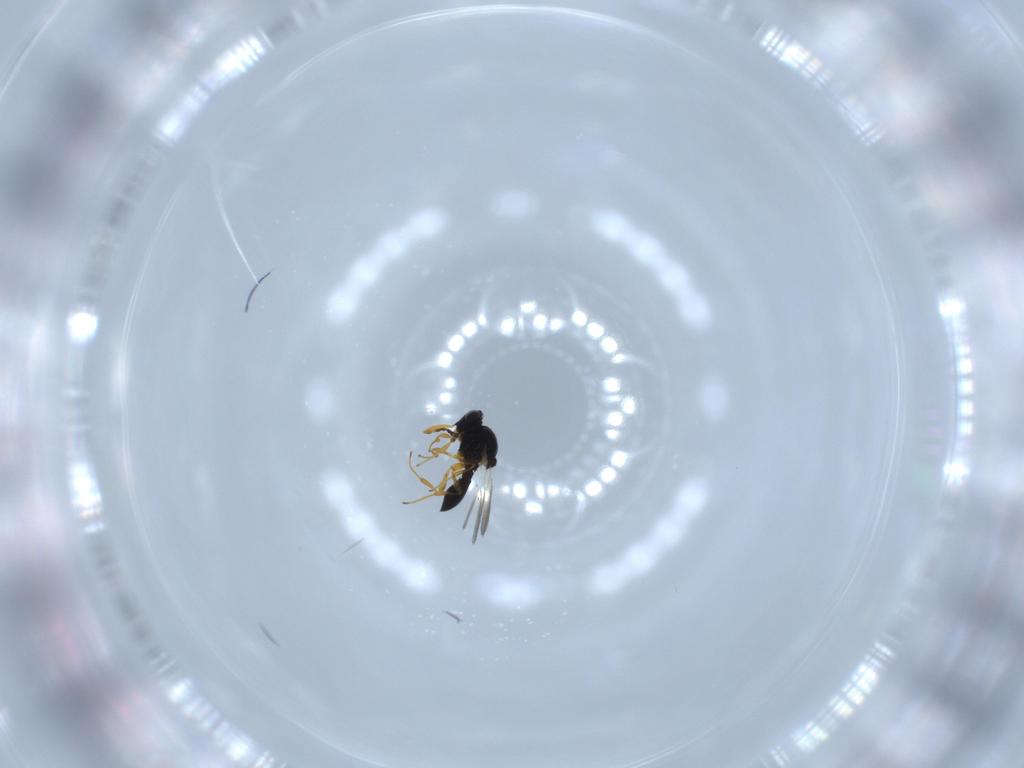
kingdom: Animalia
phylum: Arthropoda
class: Insecta
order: Hymenoptera
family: Platygastridae
